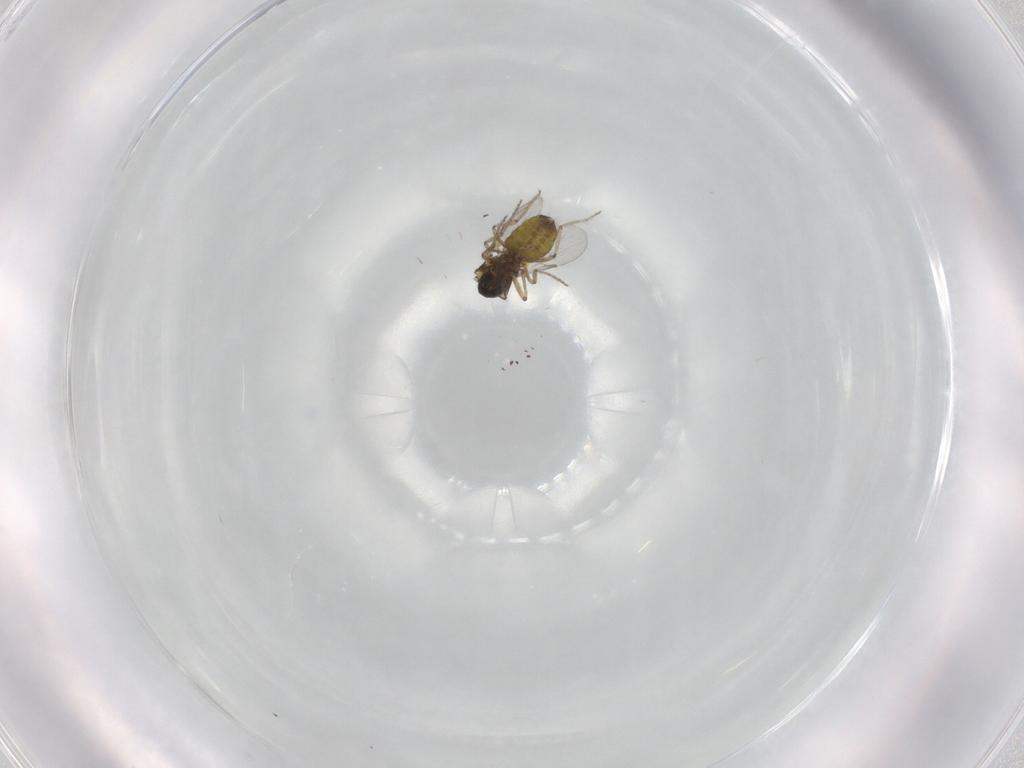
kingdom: Animalia
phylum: Arthropoda
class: Insecta
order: Diptera
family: Ceratopogonidae
